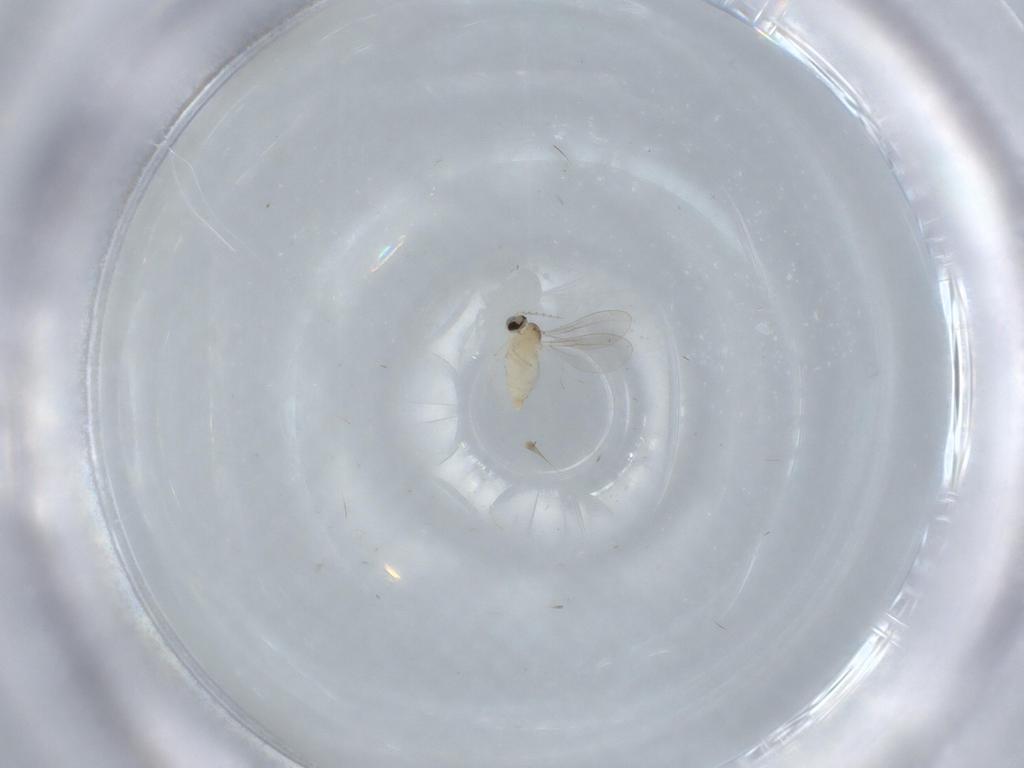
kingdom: Animalia
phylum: Arthropoda
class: Insecta
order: Diptera
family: Cecidomyiidae
